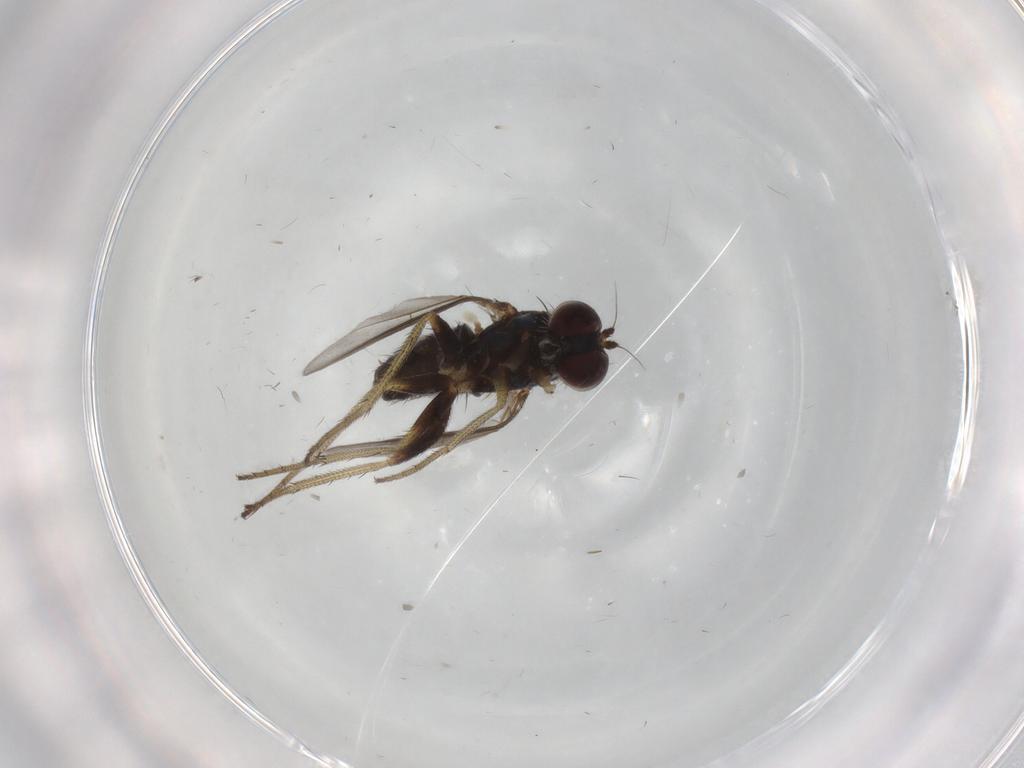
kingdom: Animalia
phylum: Arthropoda
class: Insecta
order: Diptera
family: Dolichopodidae
